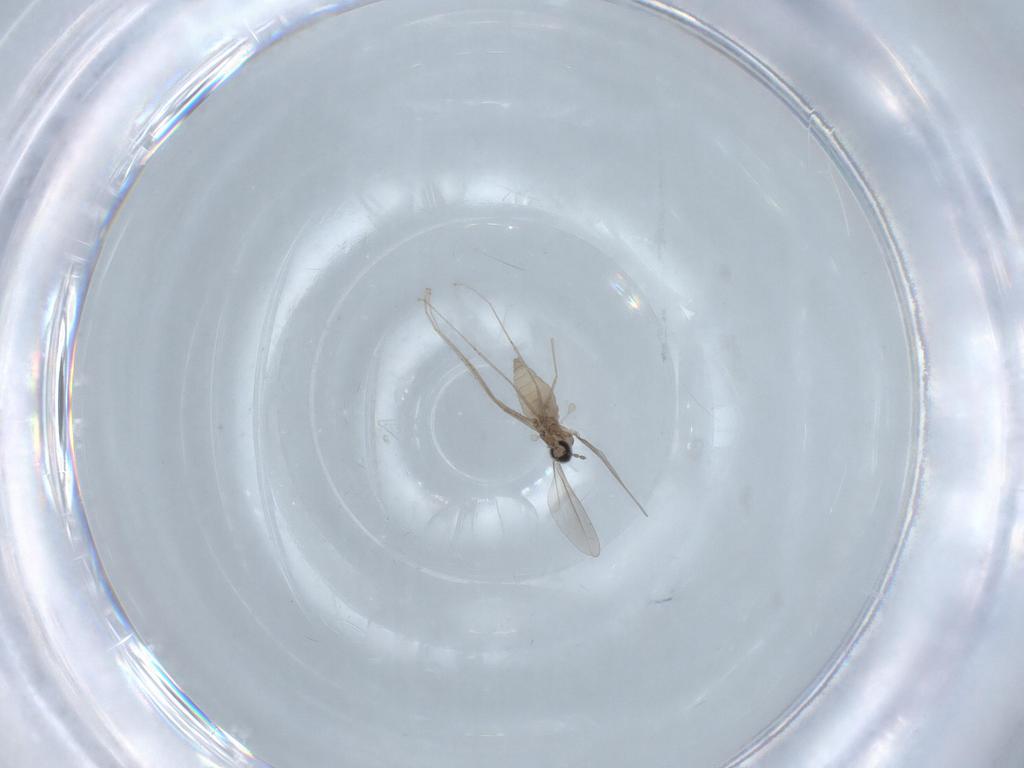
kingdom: Animalia
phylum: Arthropoda
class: Insecta
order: Diptera
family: Cecidomyiidae
